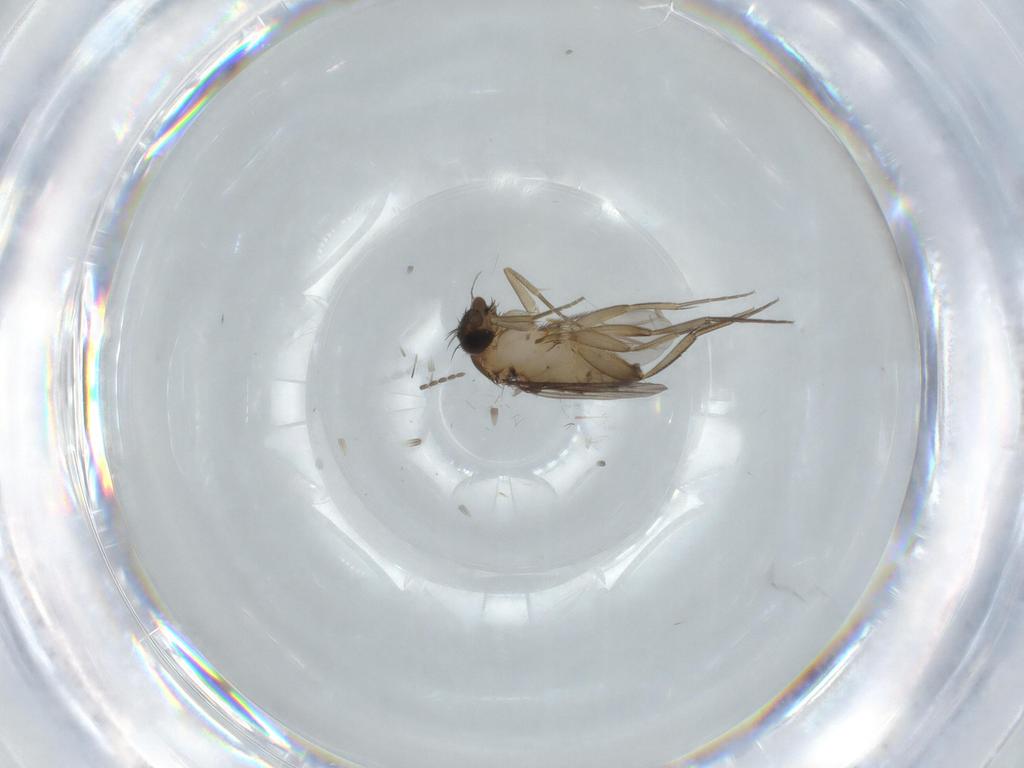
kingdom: Animalia
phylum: Arthropoda
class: Insecta
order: Diptera
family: Phoridae
